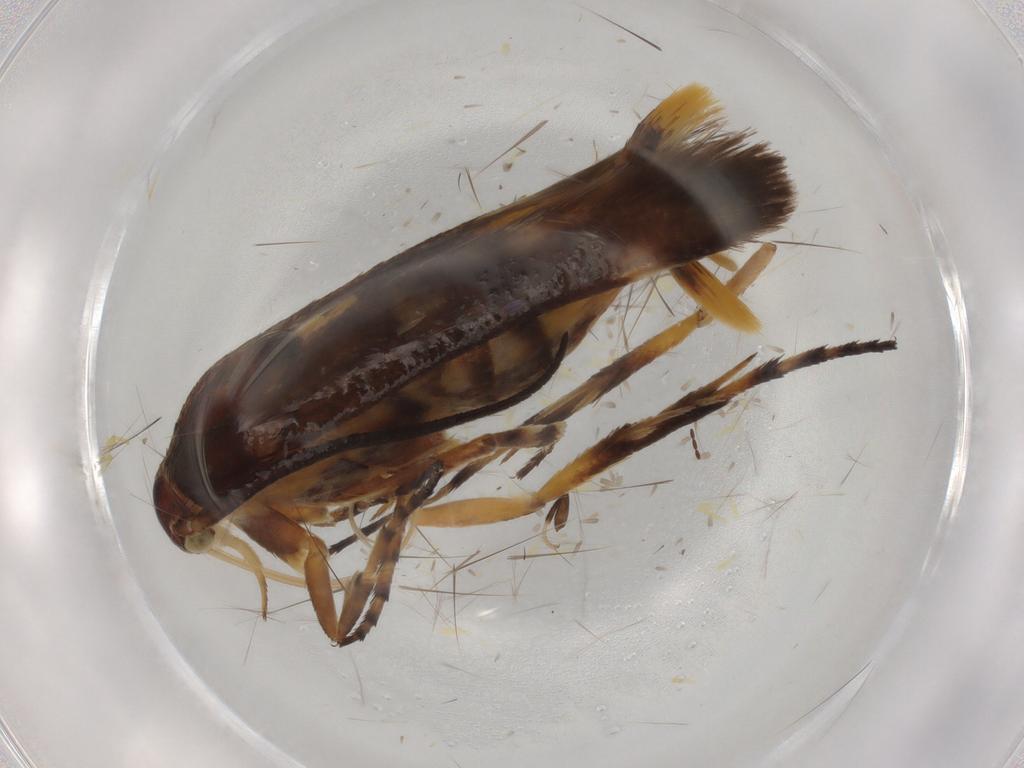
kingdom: Animalia
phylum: Arthropoda
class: Insecta
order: Lepidoptera
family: Scythrididae
